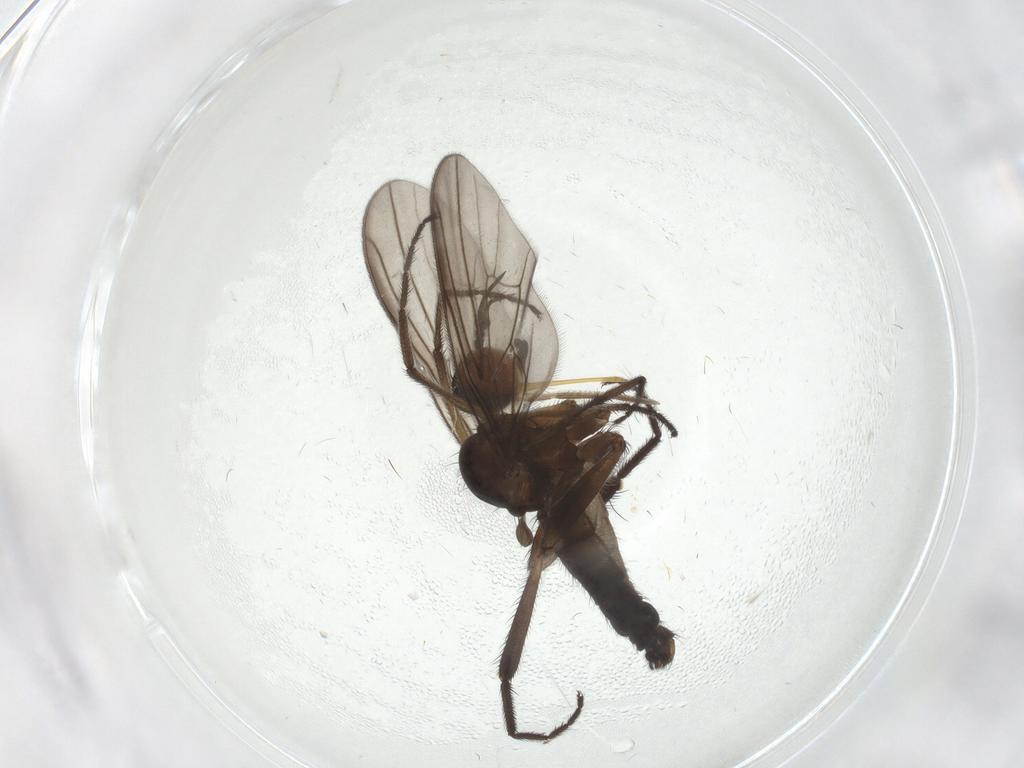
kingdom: Animalia
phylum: Arthropoda
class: Insecta
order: Diptera
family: Cecidomyiidae
